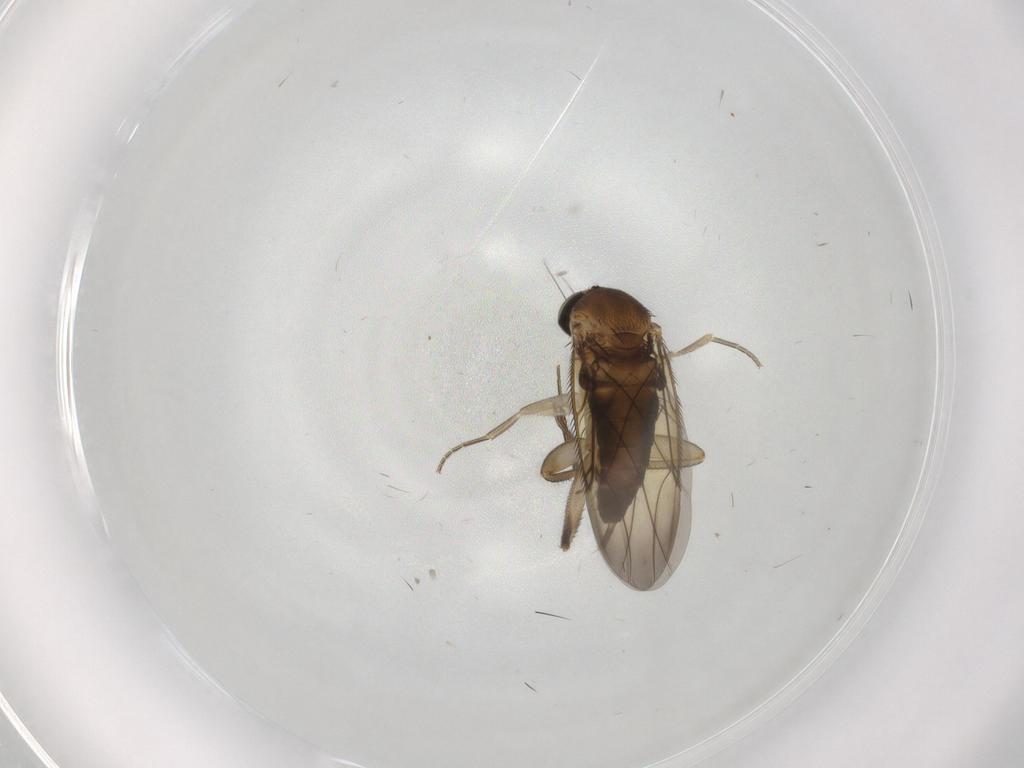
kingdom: Animalia
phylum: Arthropoda
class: Insecta
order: Diptera
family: Phoridae
